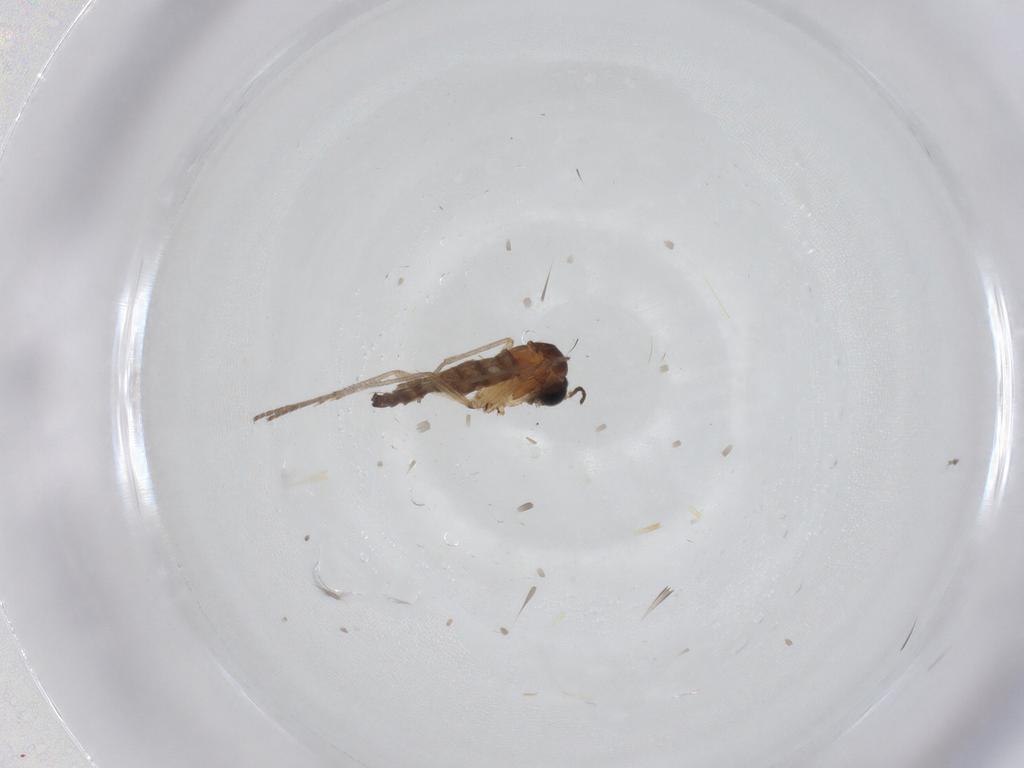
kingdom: Animalia
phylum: Arthropoda
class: Insecta
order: Diptera
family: Sciaridae
